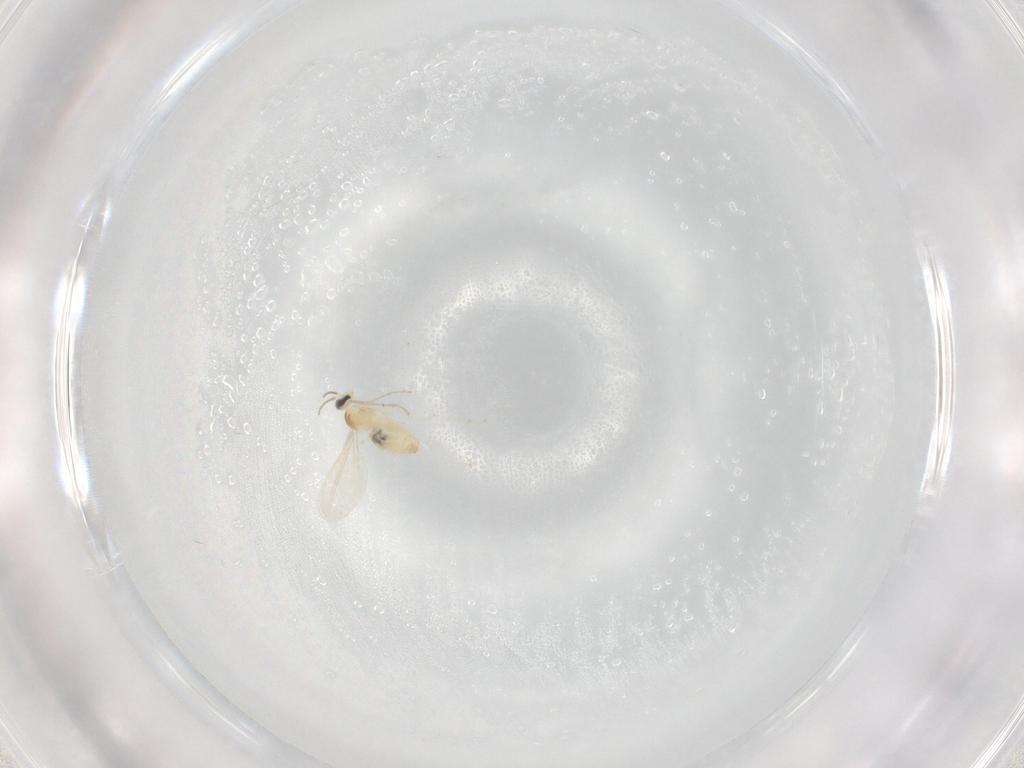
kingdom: Animalia
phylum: Arthropoda
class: Insecta
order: Diptera
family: Cecidomyiidae
